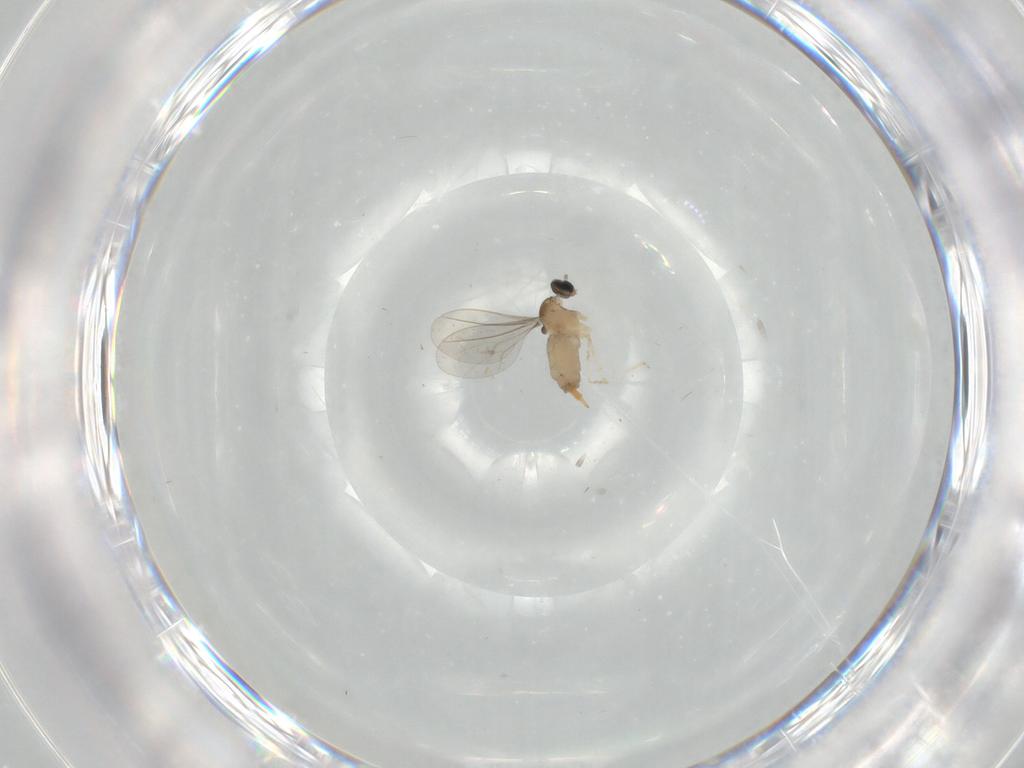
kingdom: Animalia
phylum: Arthropoda
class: Insecta
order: Diptera
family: Cecidomyiidae
